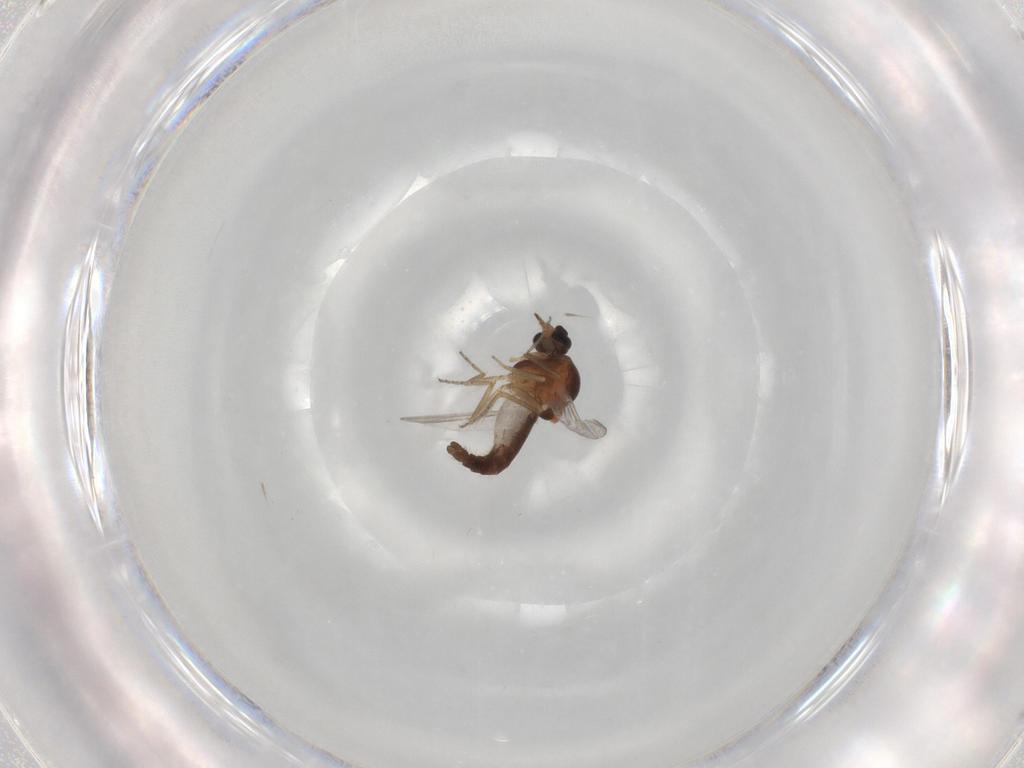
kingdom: Animalia
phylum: Arthropoda
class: Insecta
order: Diptera
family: Ceratopogonidae
